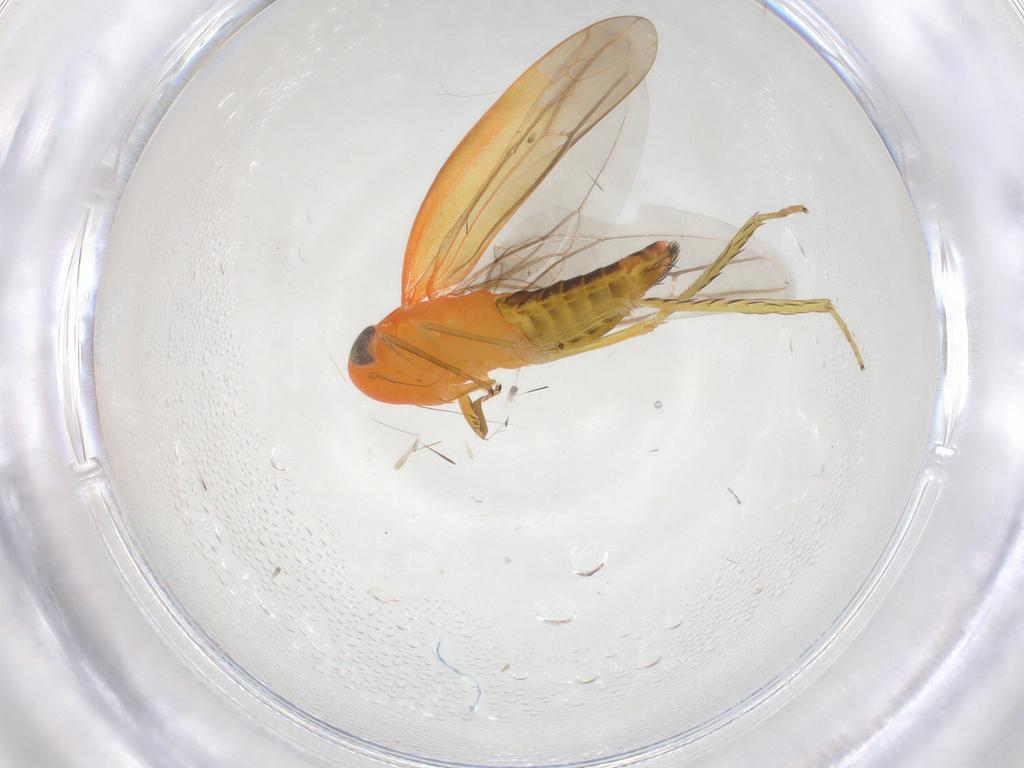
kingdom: Animalia
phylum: Arthropoda
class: Insecta
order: Hemiptera
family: Cicadellidae
